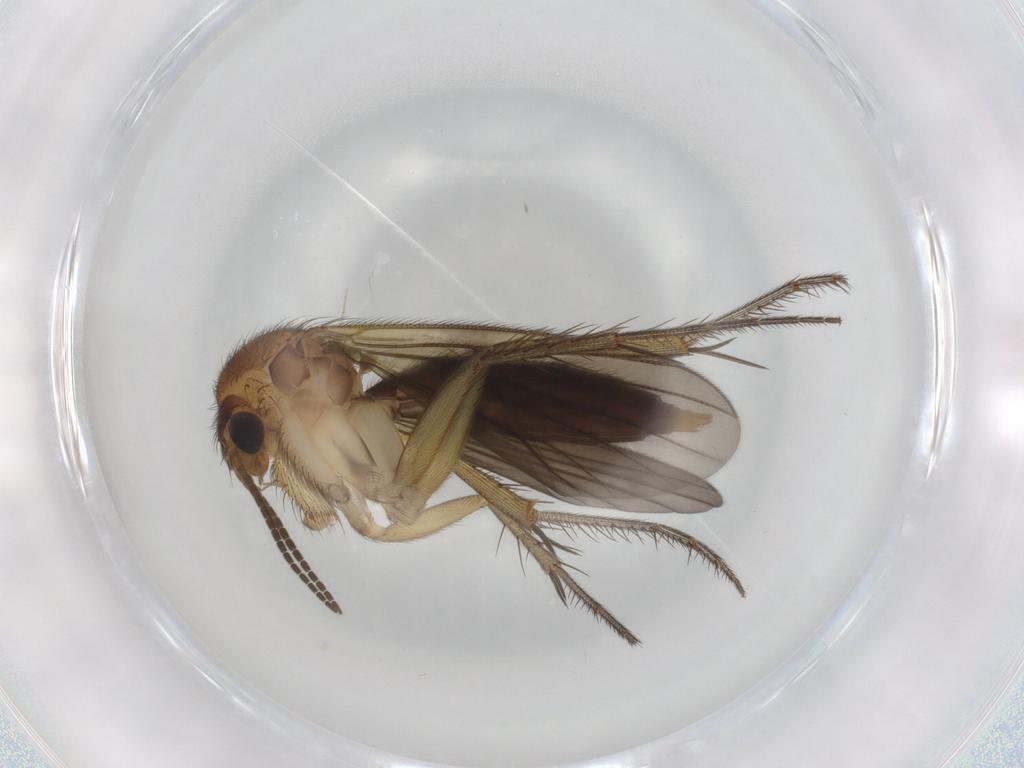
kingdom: Animalia
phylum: Arthropoda
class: Insecta
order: Diptera
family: Chironomidae
